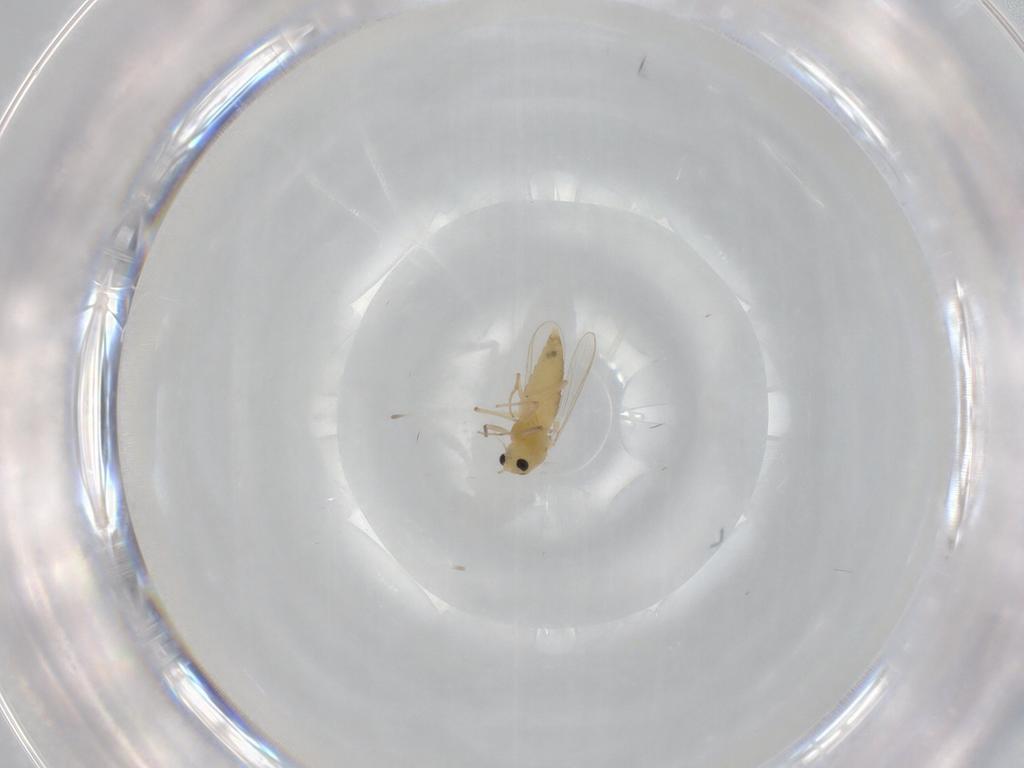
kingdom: Animalia
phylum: Arthropoda
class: Insecta
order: Diptera
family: Chironomidae
